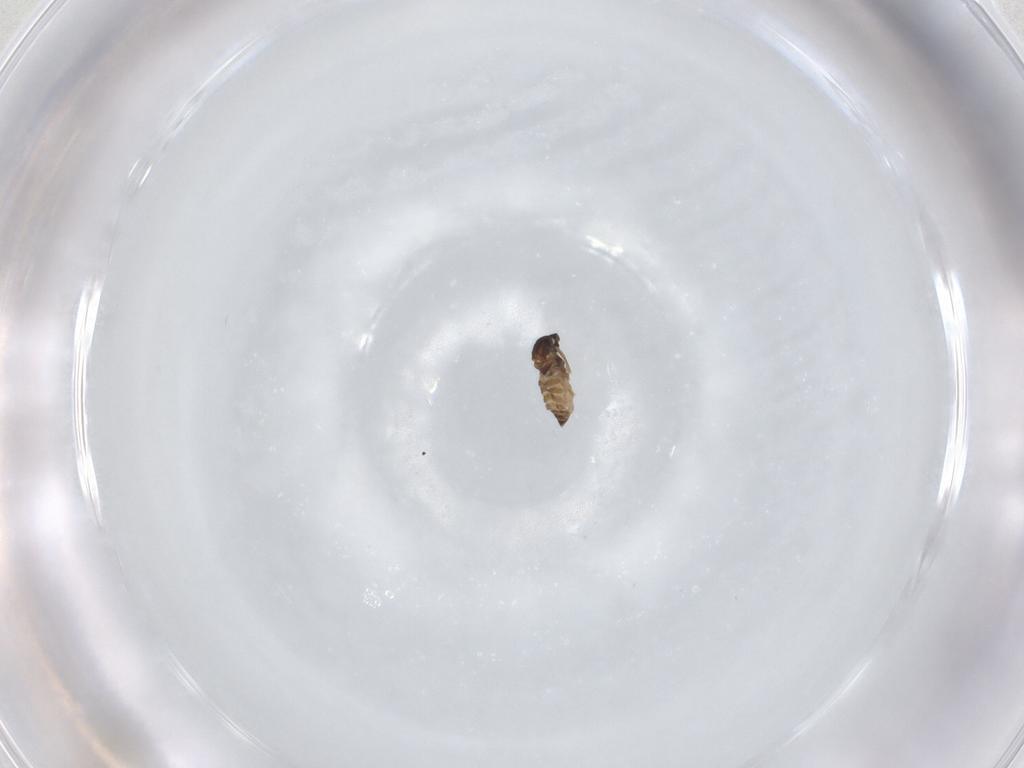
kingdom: Animalia
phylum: Arthropoda
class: Insecta
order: Diptera
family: Cecidomyiidae
